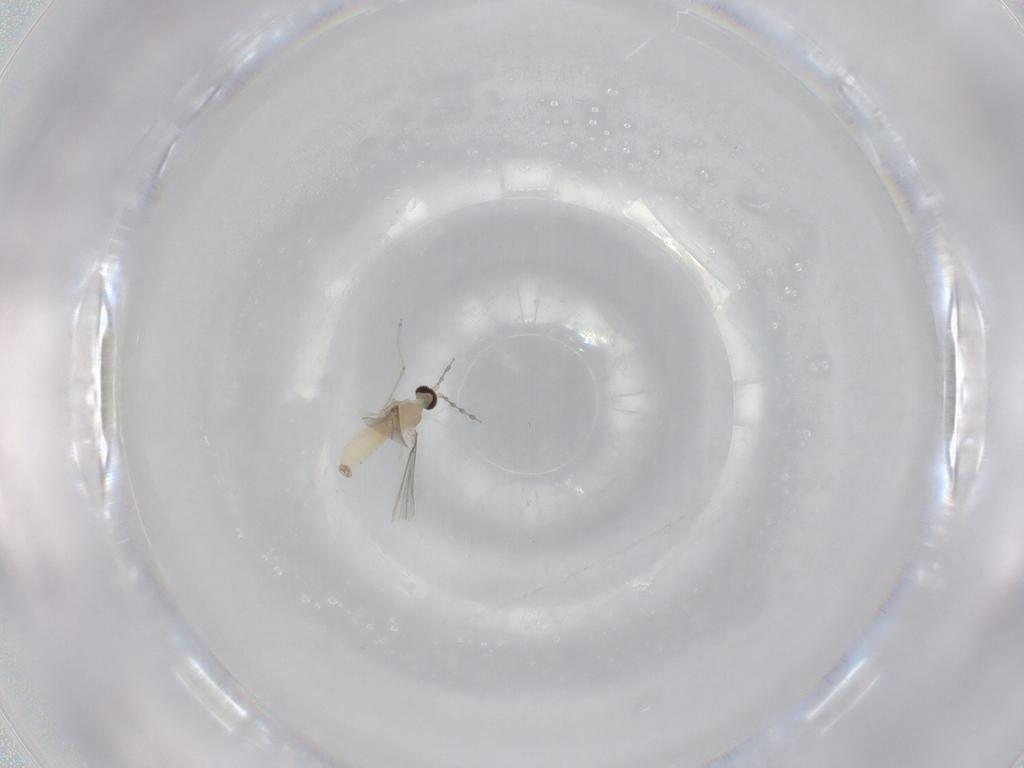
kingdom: Animalia
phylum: Arthropoda
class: Insecta
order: Diptera
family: Cecidomyiidae
